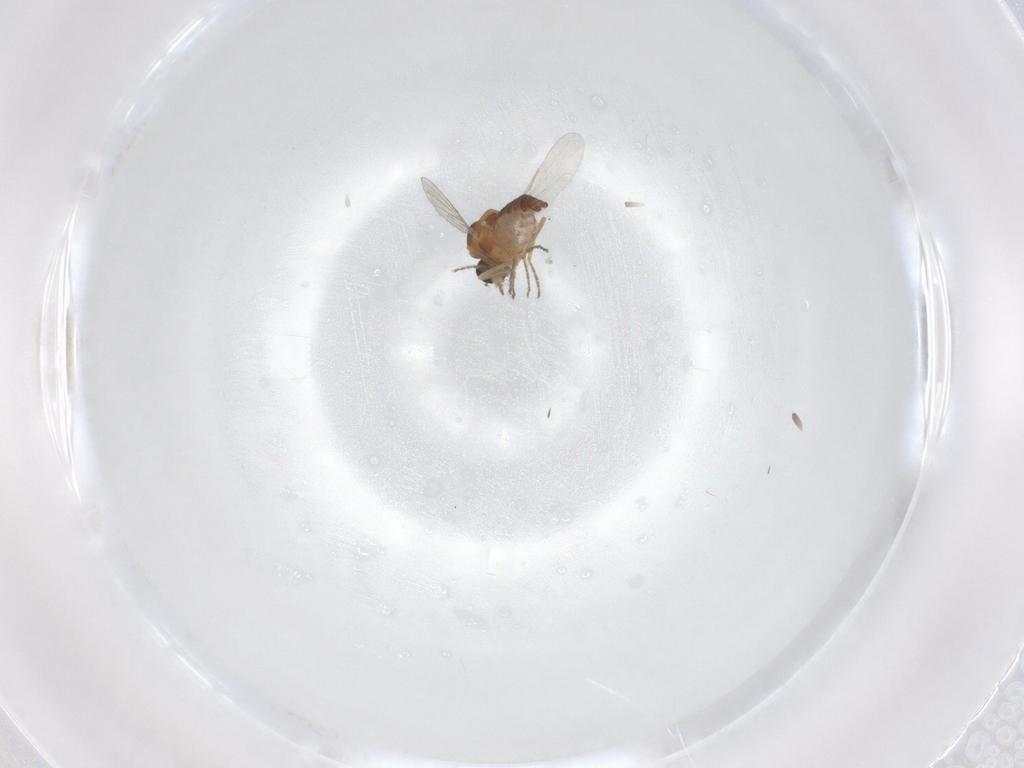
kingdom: Animalia
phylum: Arthropoda
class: Insecta
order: Diptera
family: Ceratopogonidae
